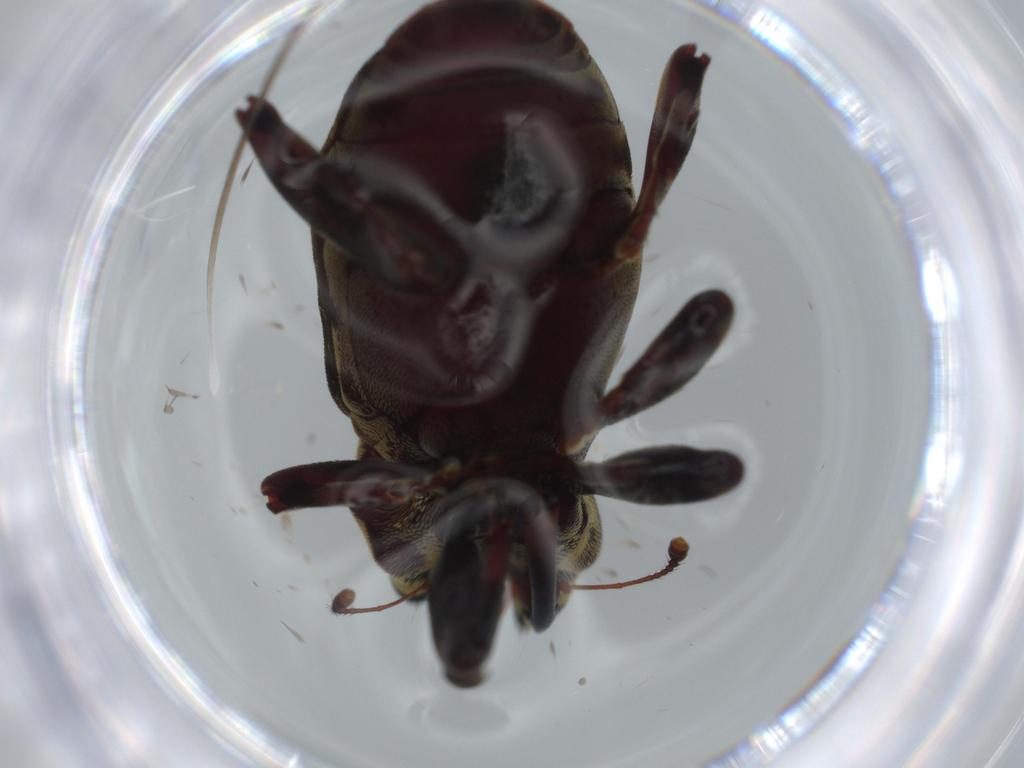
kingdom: Animalia
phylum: Arthropoda
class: Insecta
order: Coleoptera
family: Curculionidae
